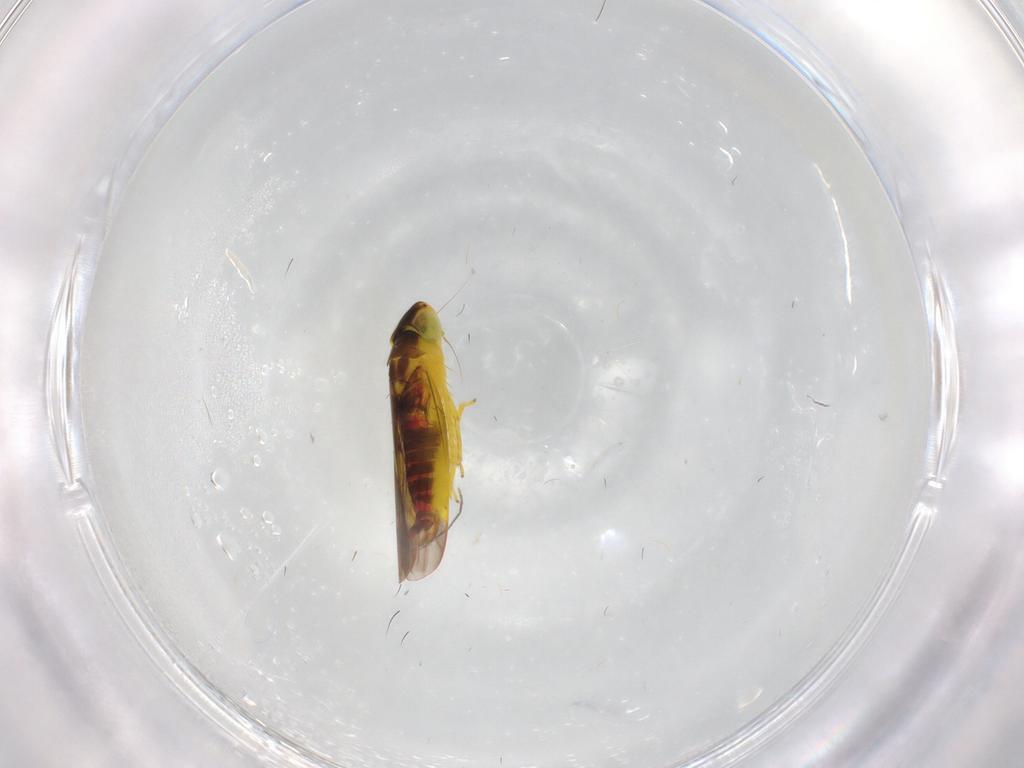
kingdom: Animalia
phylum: Arthropoda
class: Insecta
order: Hemiptera
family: Cicadellidae
